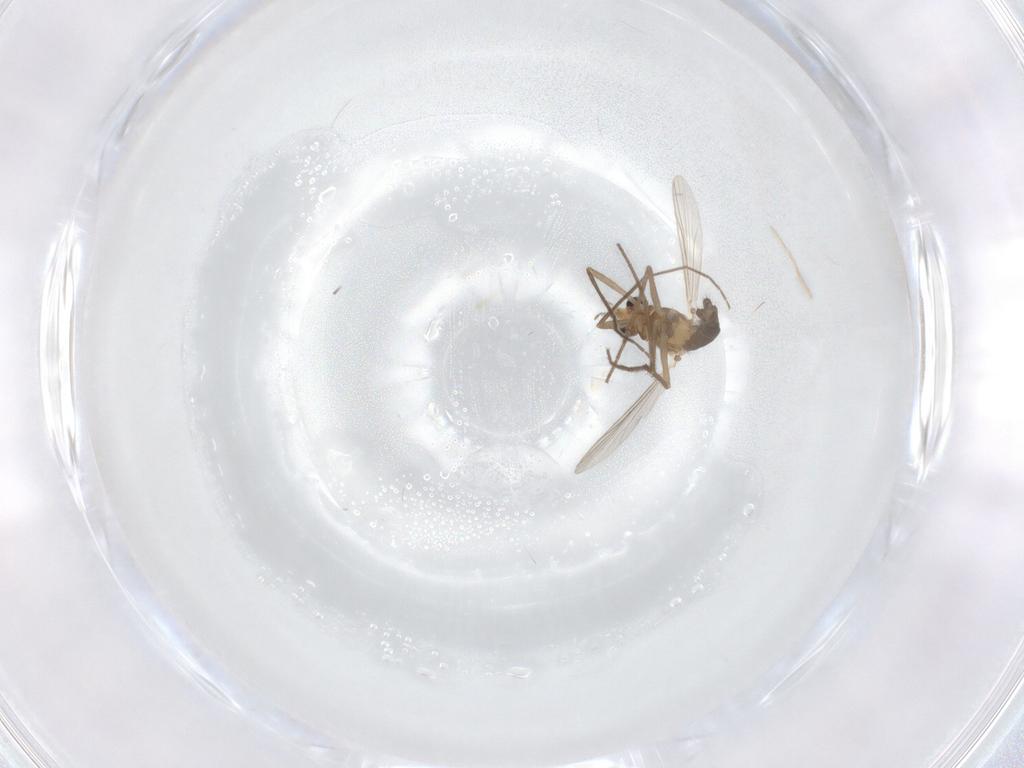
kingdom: Animalia
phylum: Arthropoda
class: Insecta
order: Diptera
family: Chironomidae
